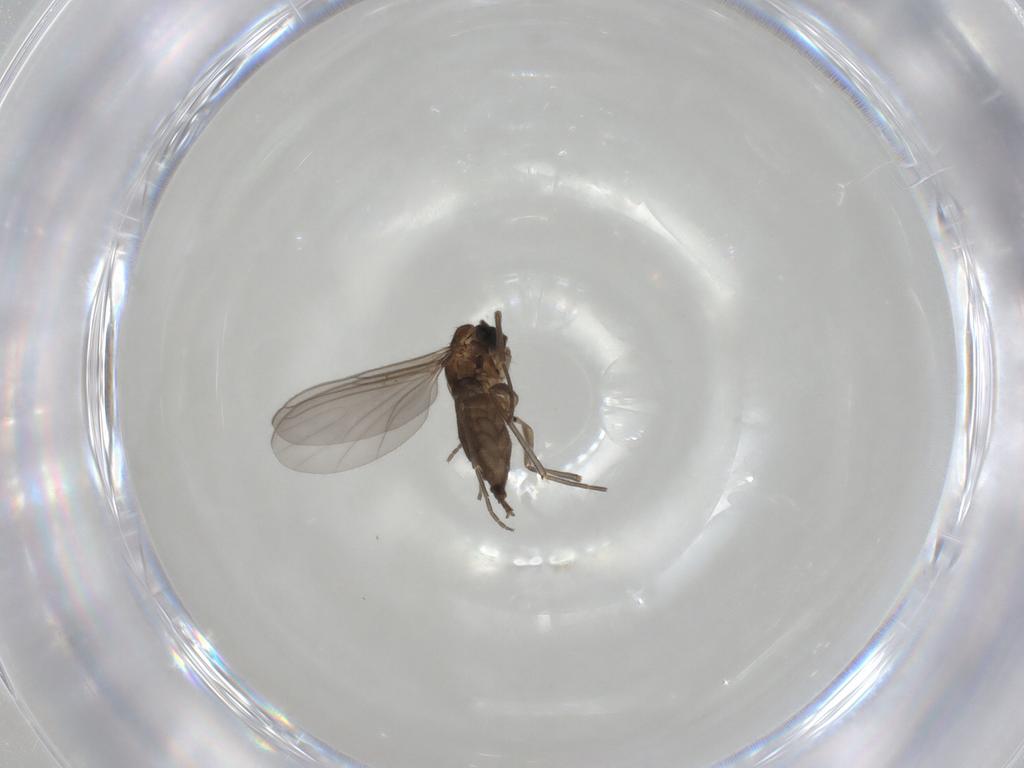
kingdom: Animalia
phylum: Arthropoda
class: Insecta
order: Diptera
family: Sciaridae
